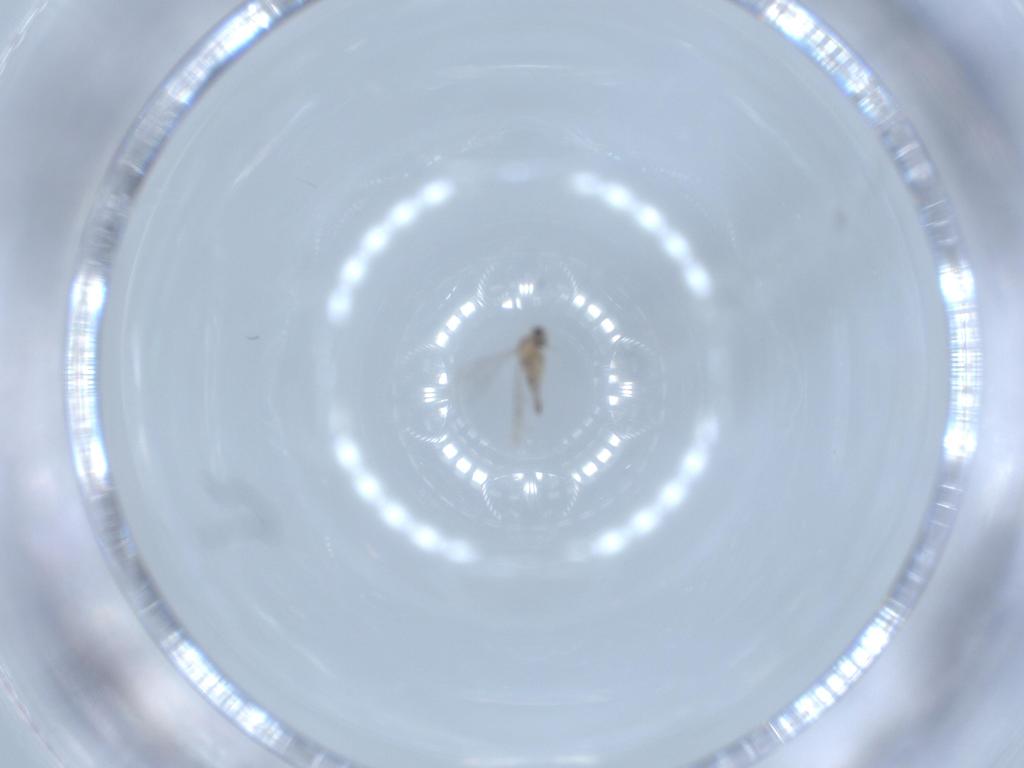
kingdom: Animalia
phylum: Arthropoda
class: Insecta
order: Diptera
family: Cecidomyiidae
